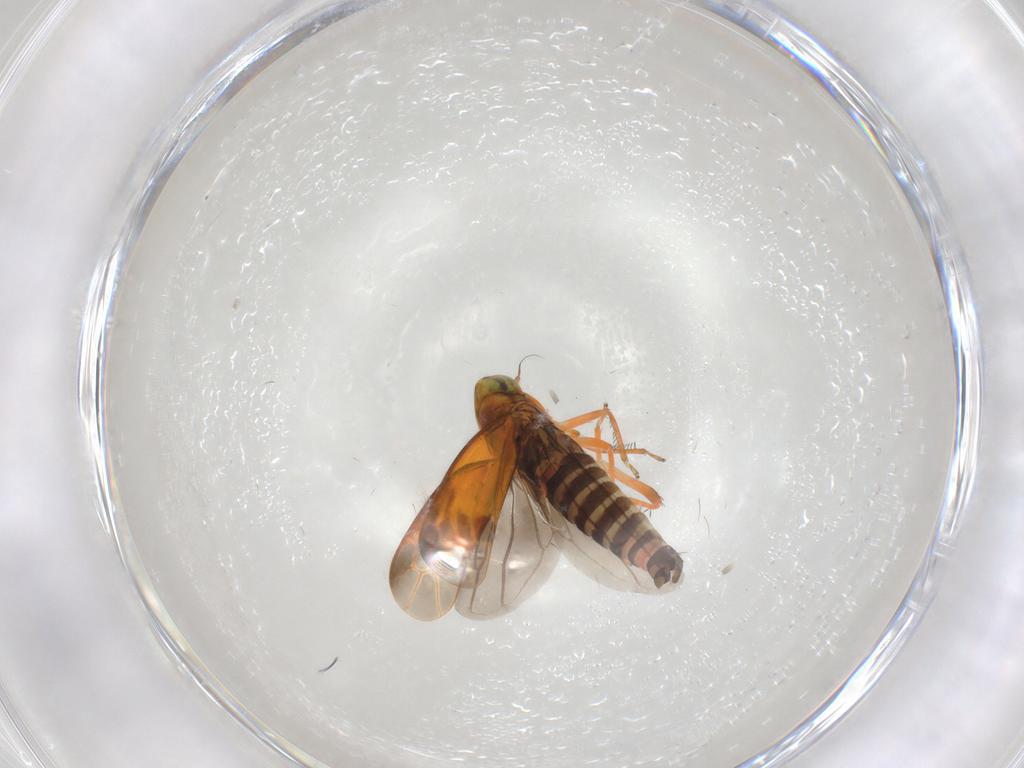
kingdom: Animalia
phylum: Arthropoda
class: Insecta
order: Hemiptera
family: Cicadellidae
